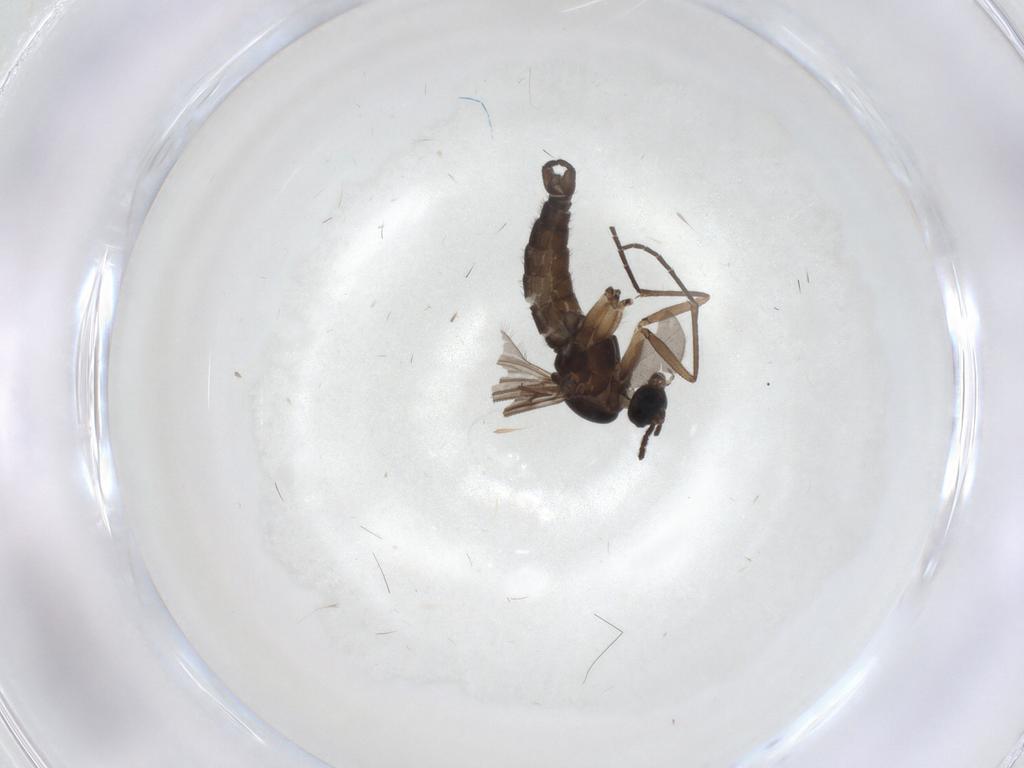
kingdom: Animalia
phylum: Arthropoda
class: Insecta
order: Diptera
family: Sciaridae
